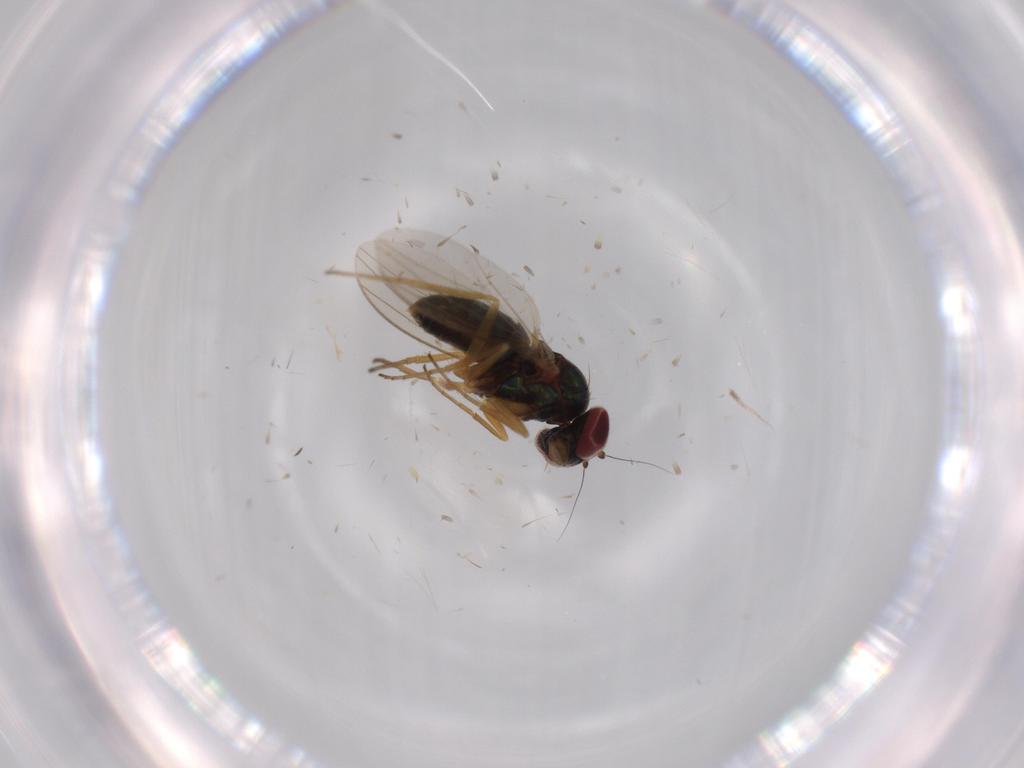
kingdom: Animalia
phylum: Arthropoda
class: Insecta
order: Diptera
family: Dolichopodidae
